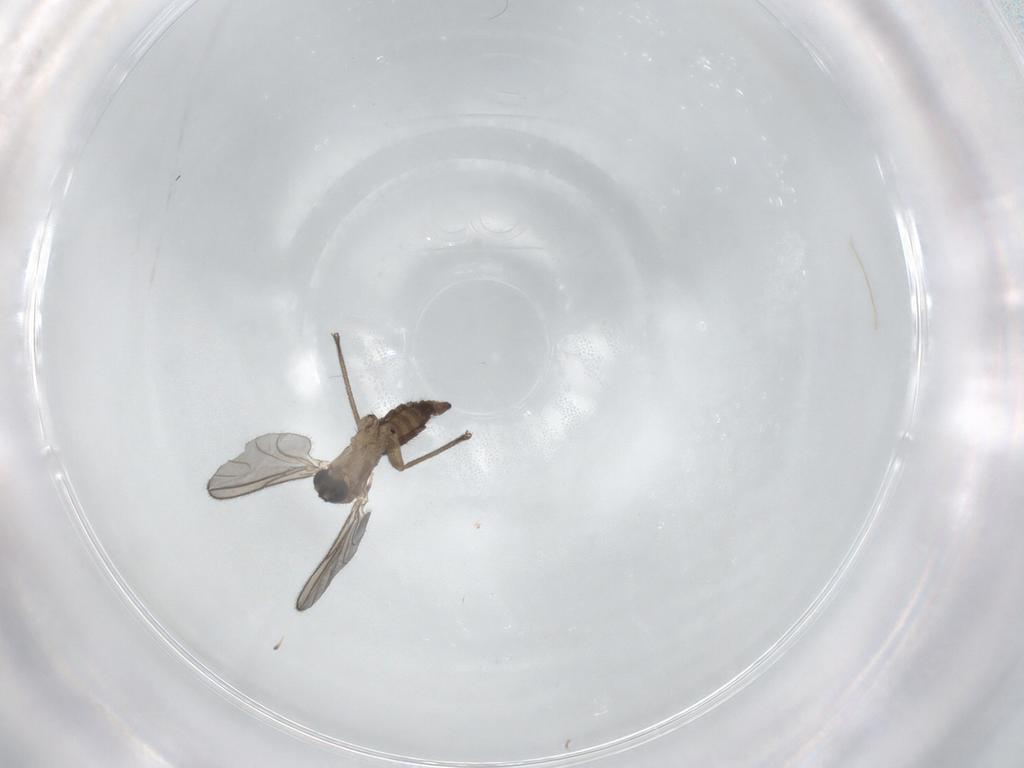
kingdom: Animalia
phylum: Arthropoda
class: Insecta
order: Diptera
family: Sciaridae
